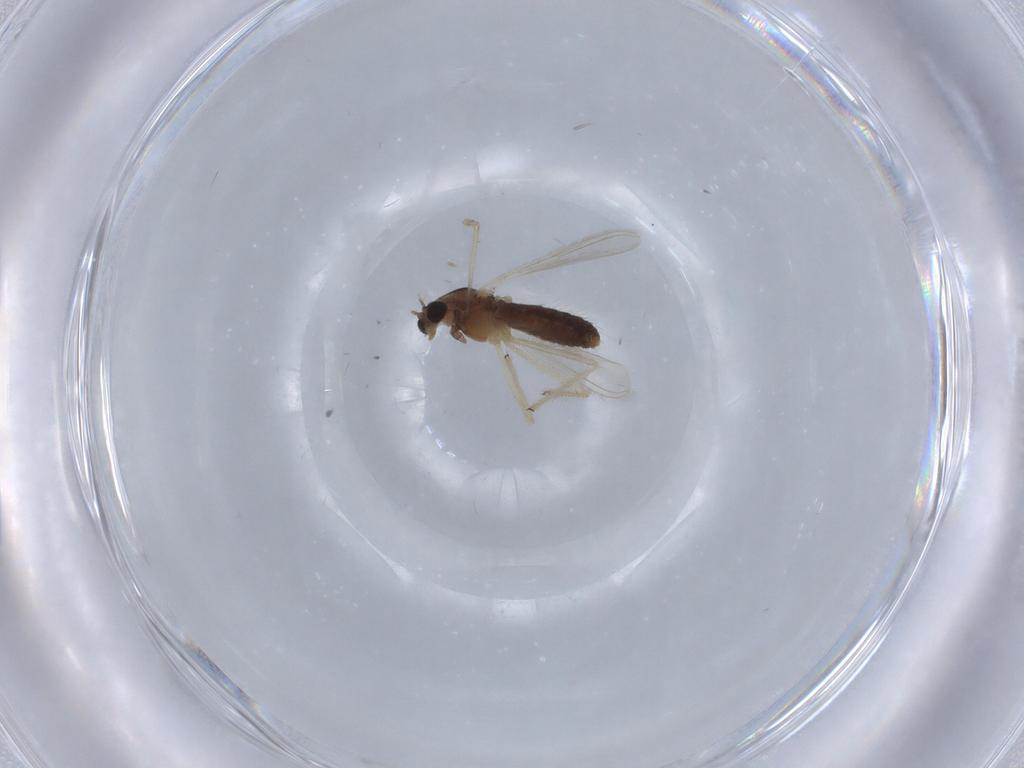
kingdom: Animalia
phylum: Arthropoda
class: Insecta
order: Diptera
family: Chironomidae
